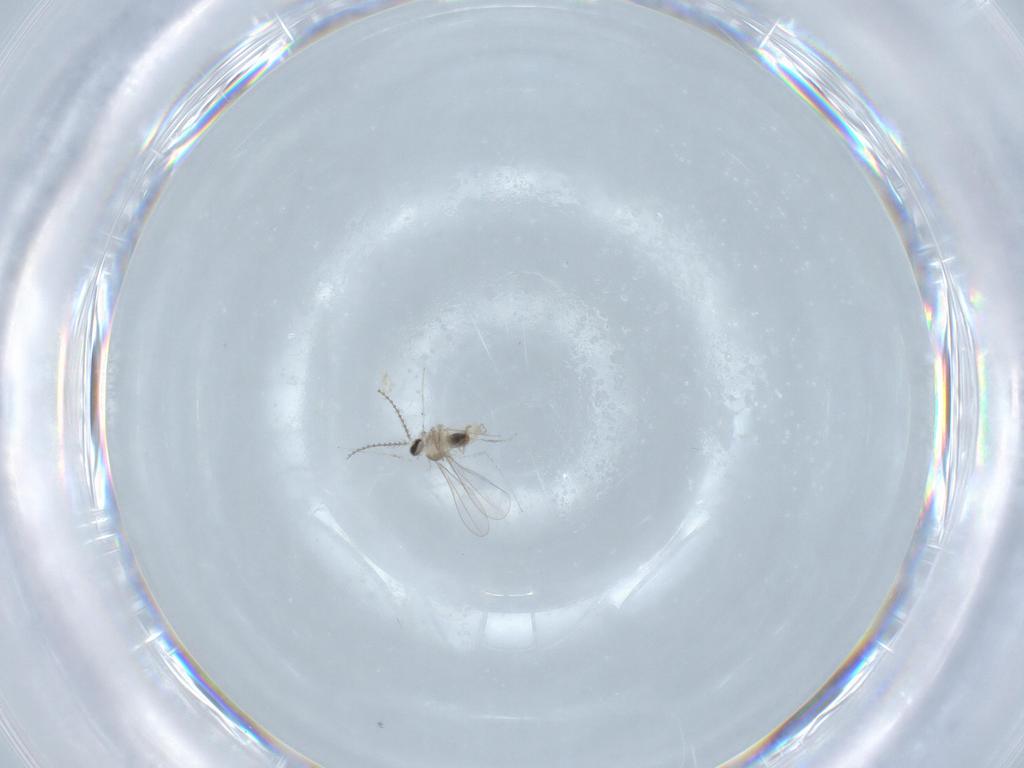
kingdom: Animalia
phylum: Arthropoda
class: Insecta
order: Diptera
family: Cecidomyiidae
